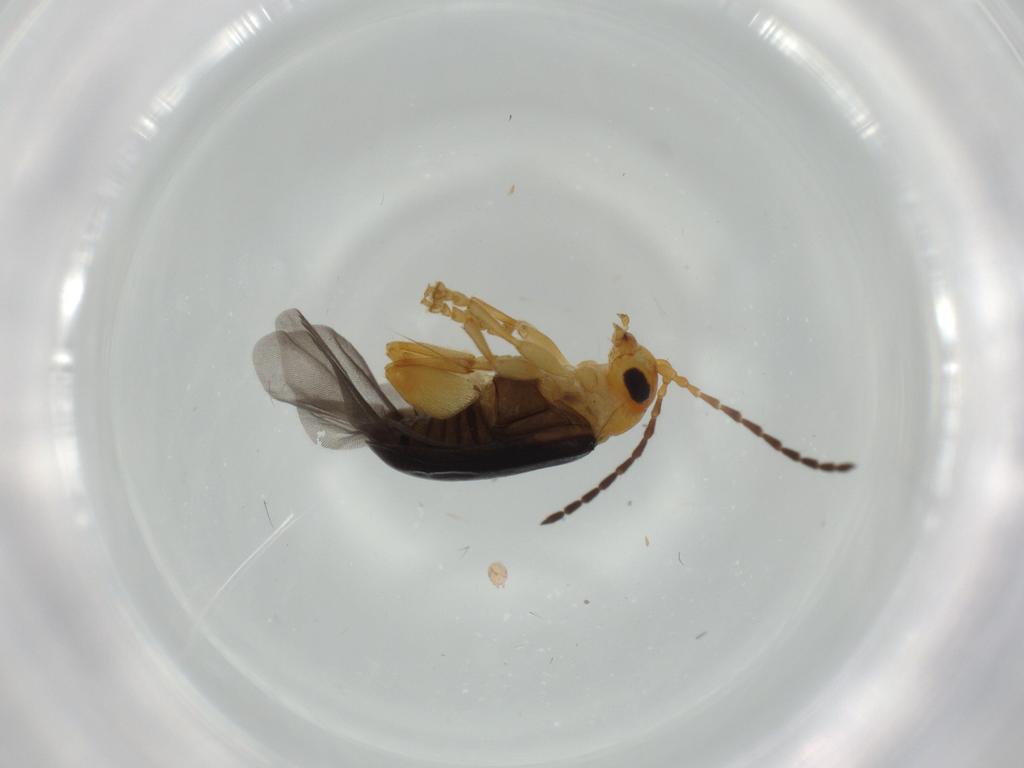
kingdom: Animalia
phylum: Arthropoda
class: Insecta
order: Coleoptera
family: Chrysomelidae
